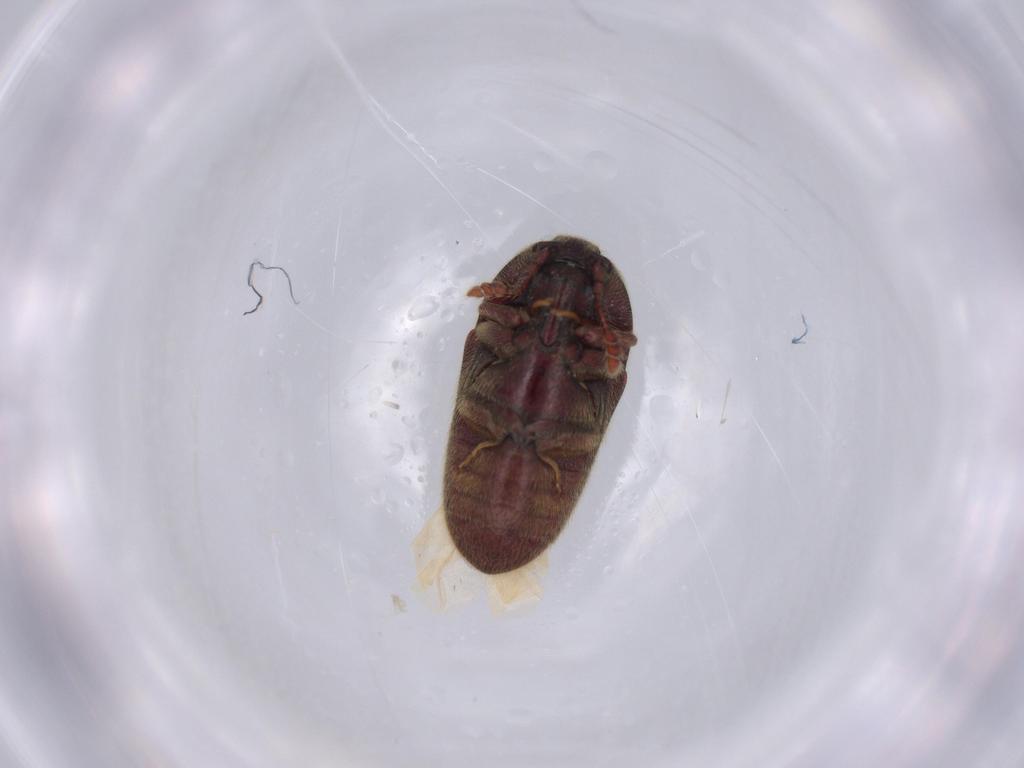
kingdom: Animalia
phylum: Arthropoda
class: Insecta
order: Coleoptera
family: Throscidae
